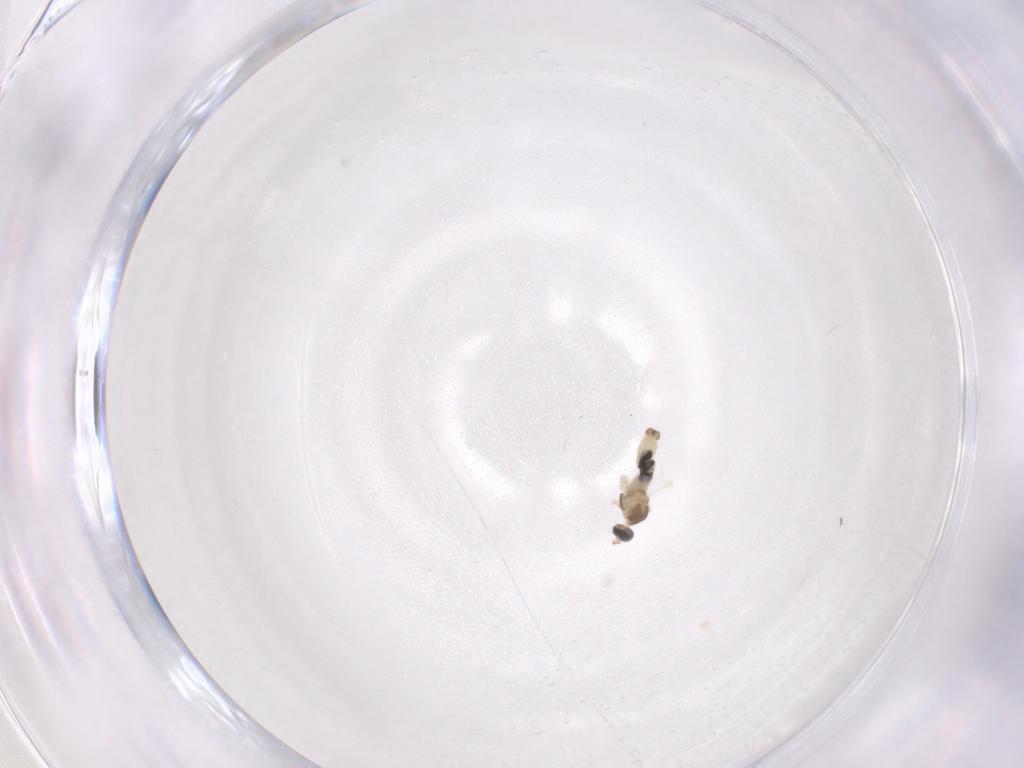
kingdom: Animalia
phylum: Arthropoda
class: Insecta
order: Diptera
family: Cecidomyiidae
